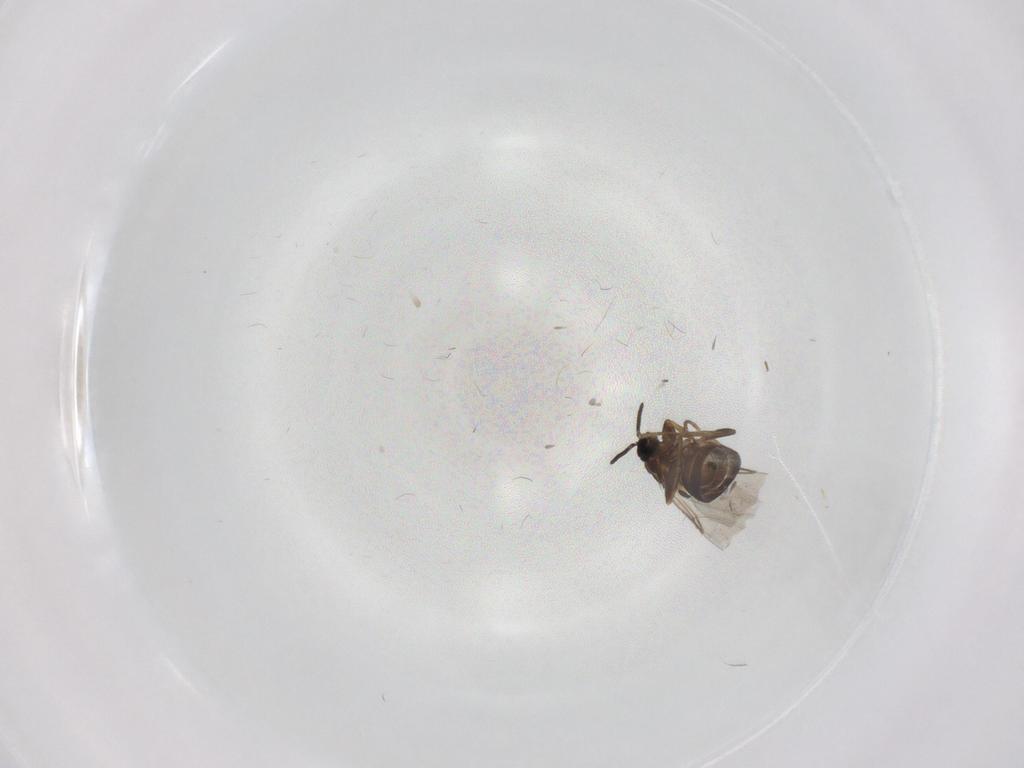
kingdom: Animalia
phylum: Arthropoda
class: Insecta
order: Diptera
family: Scatopsidae
